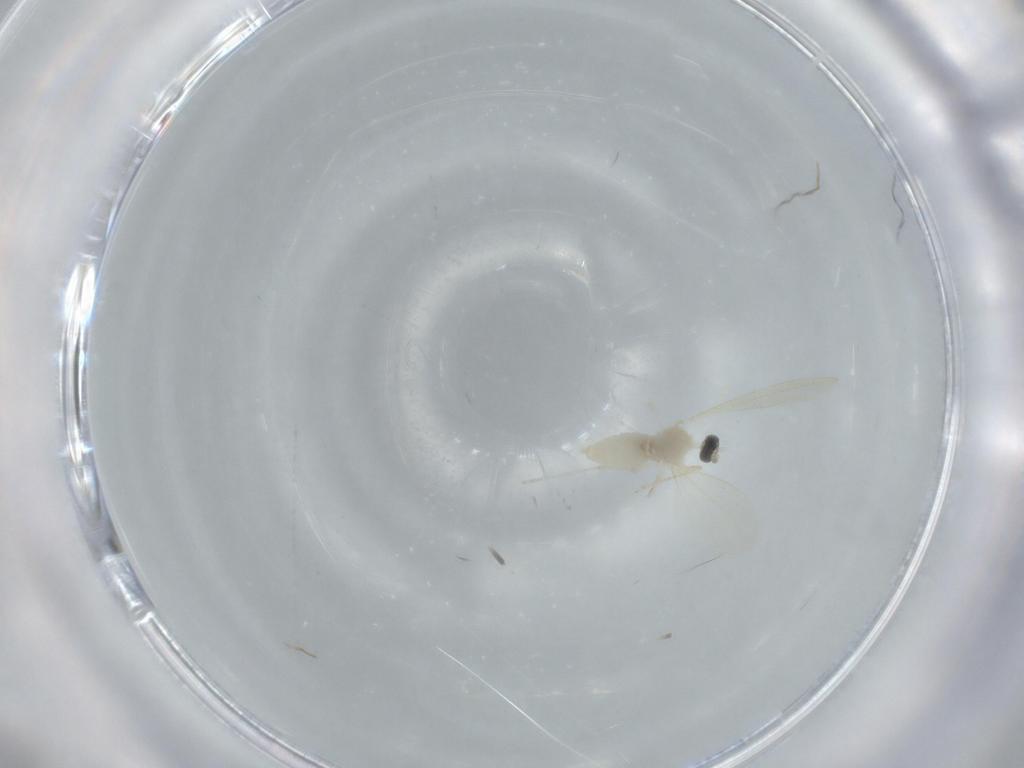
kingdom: Animalia
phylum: Arthropoda
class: Insecta
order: Diptera
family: Cecidomyiidae
